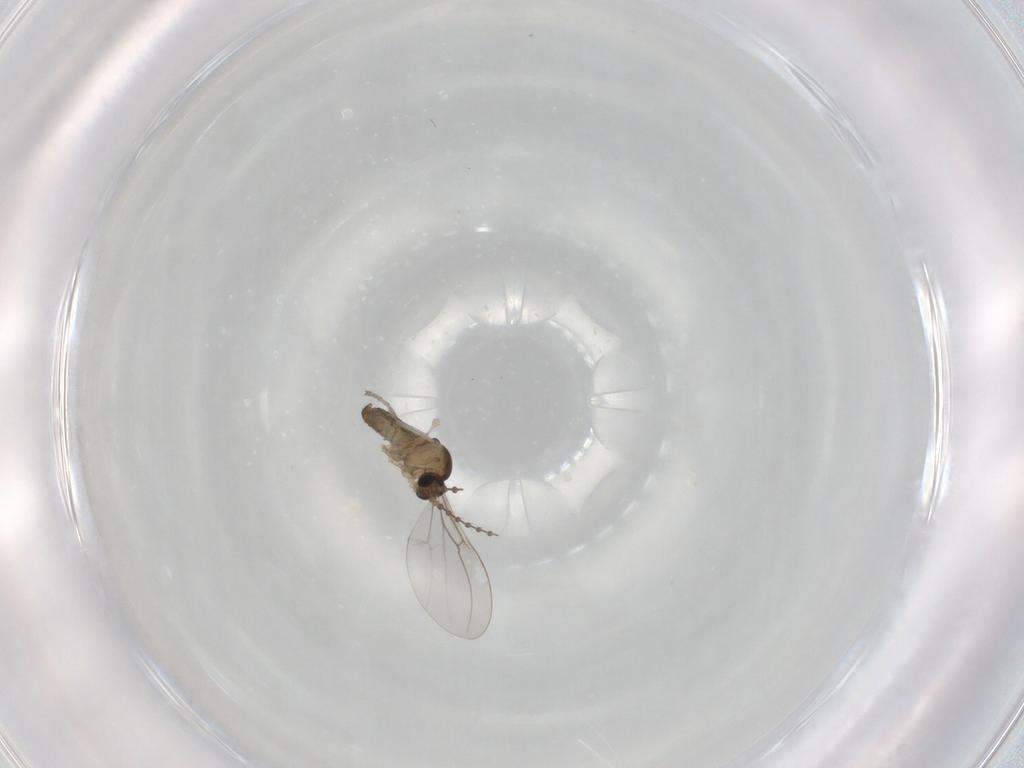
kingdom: Animalia
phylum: Arthropoda
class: Insecta
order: Diptera
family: Cecidomyiidae
